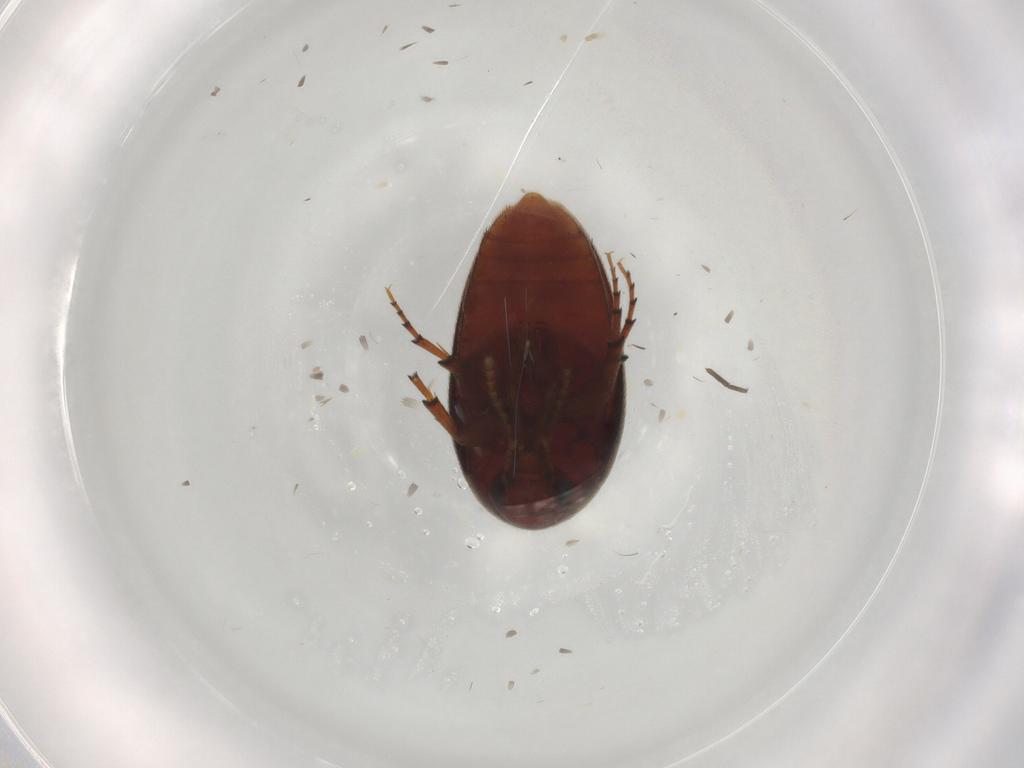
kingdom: Animalia
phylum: Arthropoda
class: Insecta
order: Coleoptera
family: Eucinetidae
